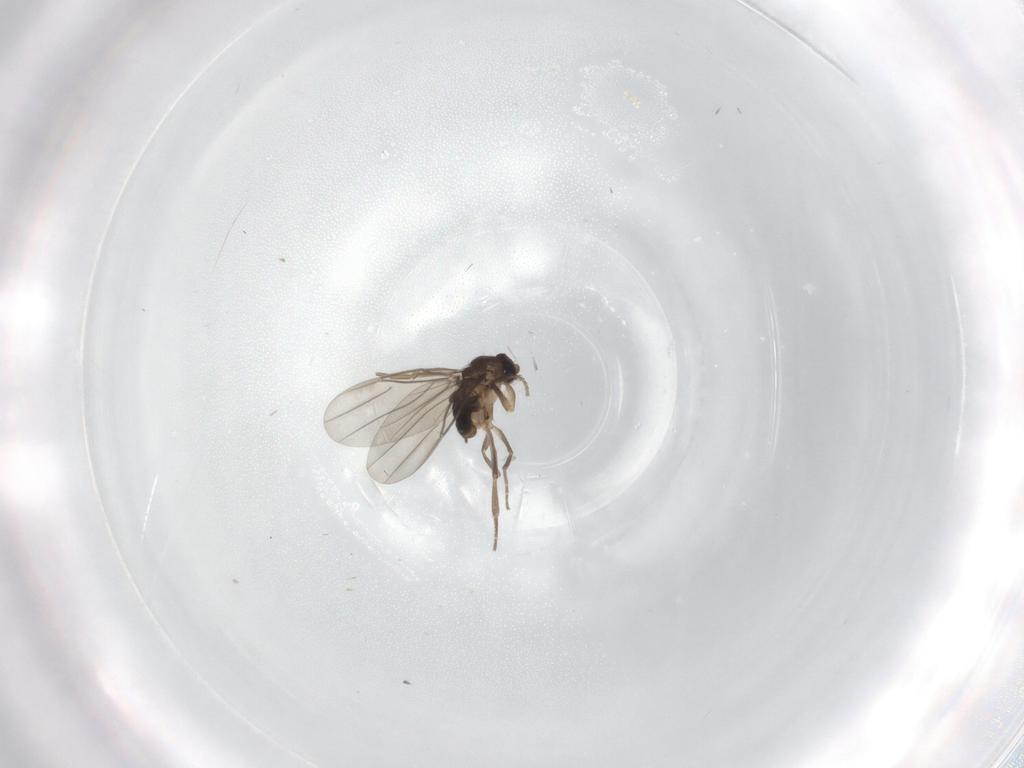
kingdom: Animalia
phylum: Arthropoda
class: Insecta
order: Diptera
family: Phoridae
